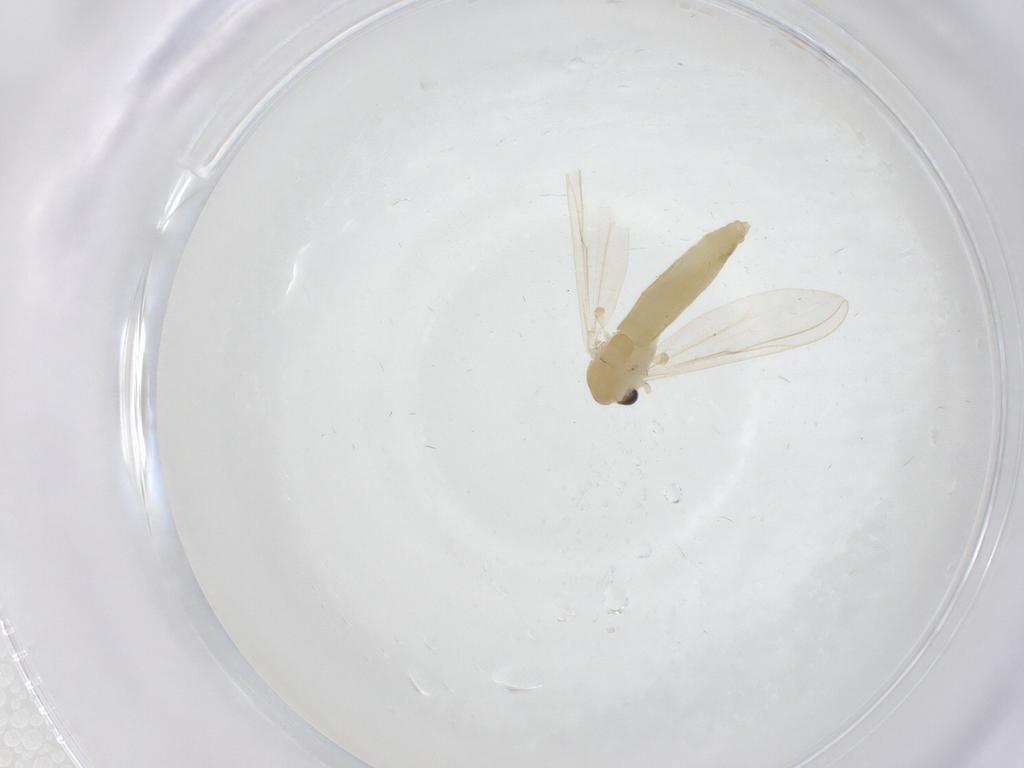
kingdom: Animalia
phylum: Arthropoda
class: Insecta
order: Diptera
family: Chironomidae
